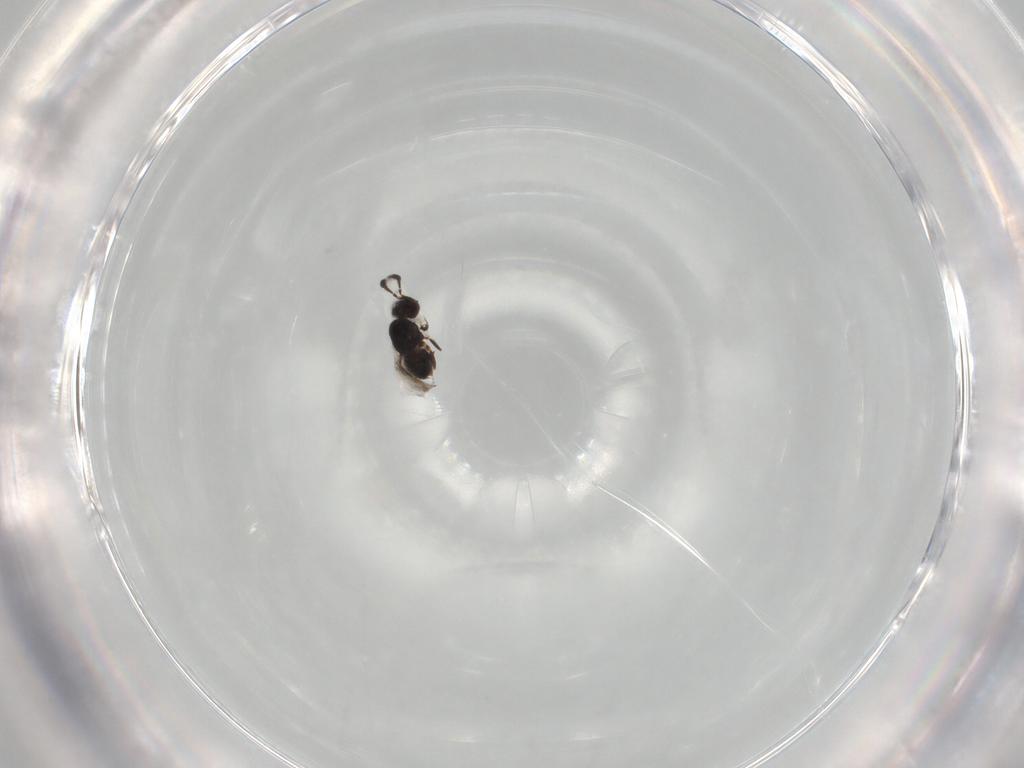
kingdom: Animalia
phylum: Arthropoda
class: Insecta
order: Hymenoptera
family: Ceraphronidae
